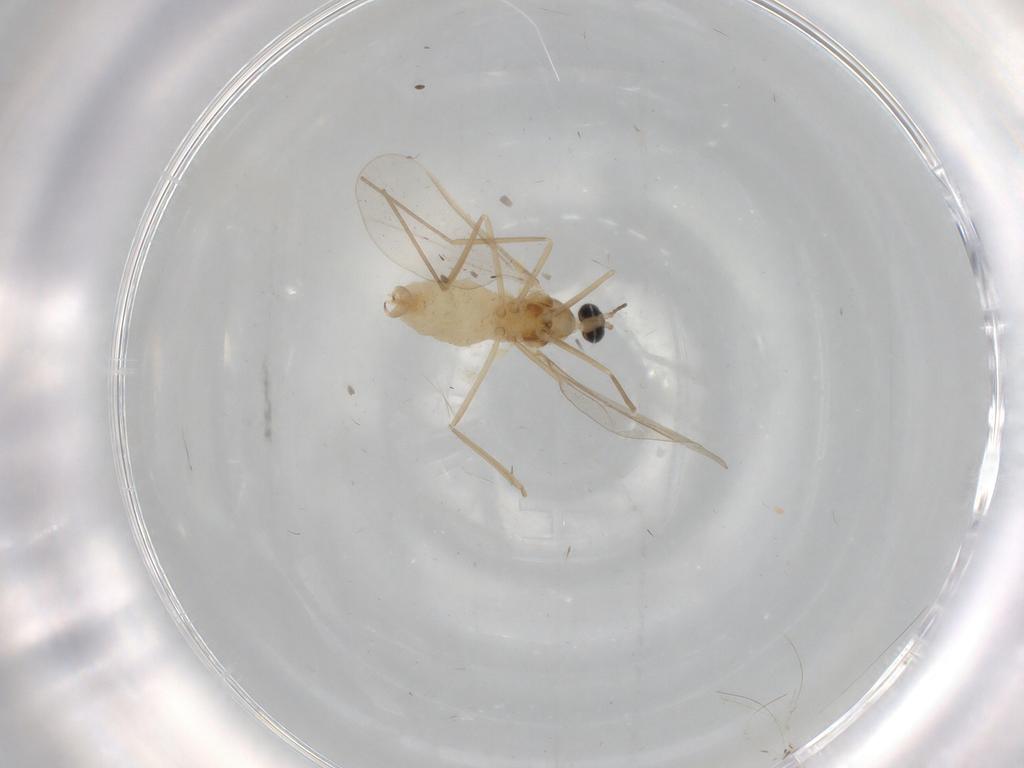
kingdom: Animalia
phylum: Arthropoda
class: Insecta
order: Diptera
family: Cecidomyiidae
